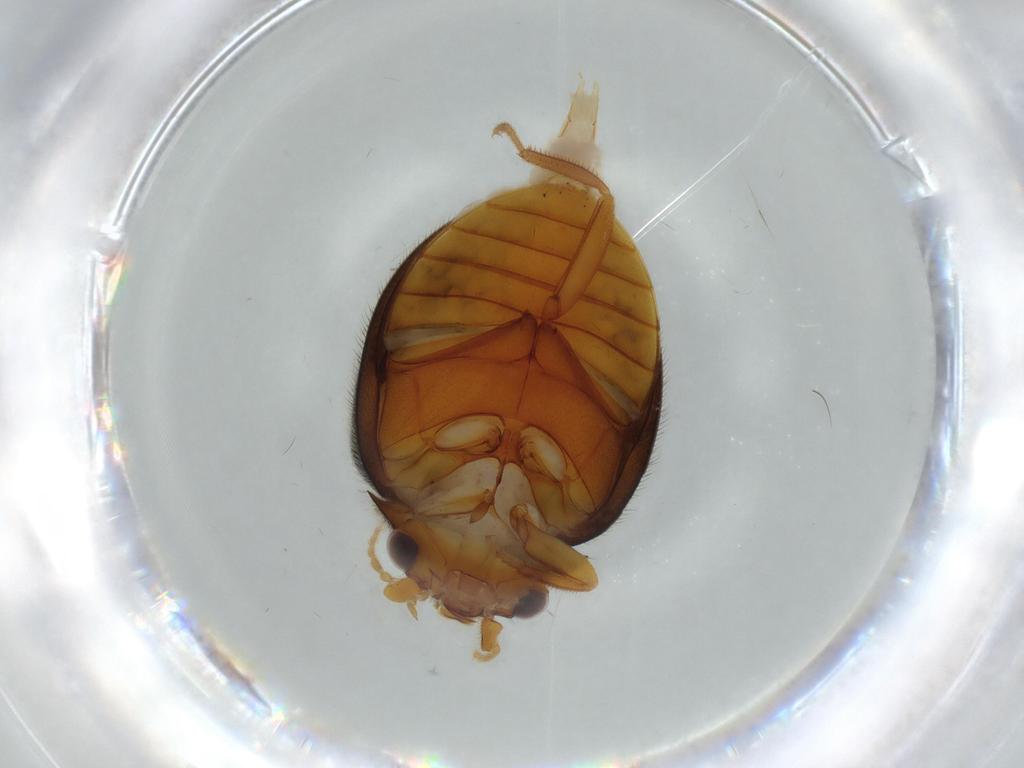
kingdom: Animalia
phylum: Arthropoda
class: Insecta
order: Coleoptera
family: Scirtidae
